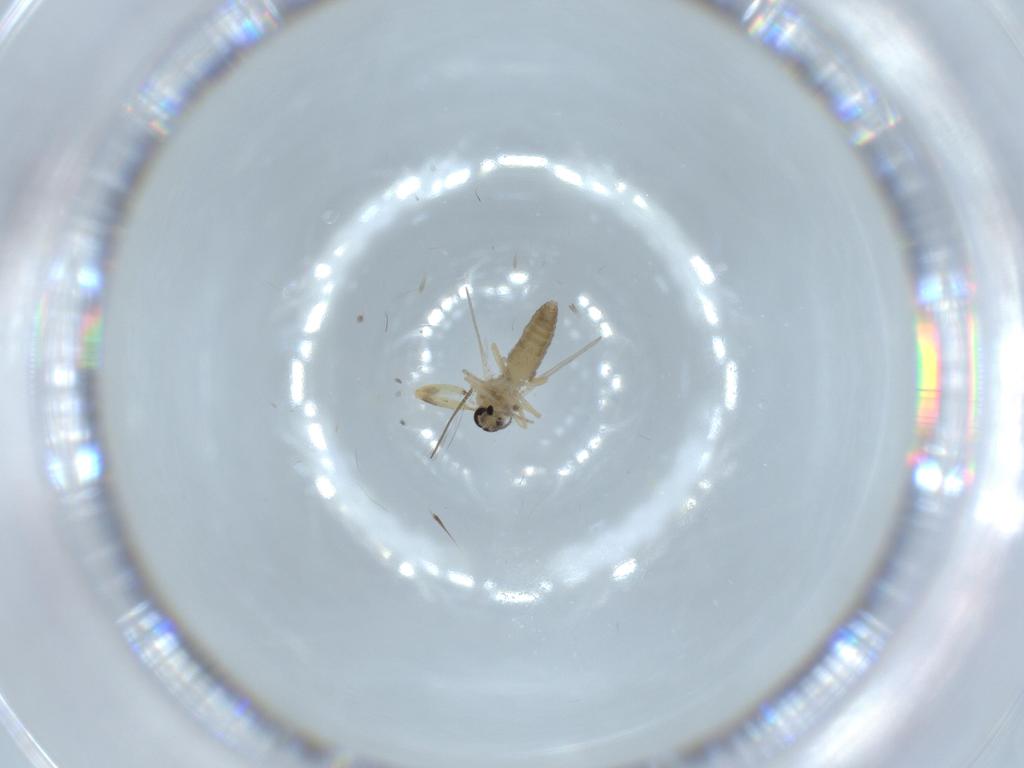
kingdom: Animalia
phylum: Arthropoda
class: Insecta
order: Diptera
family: Ceratopogonidae
